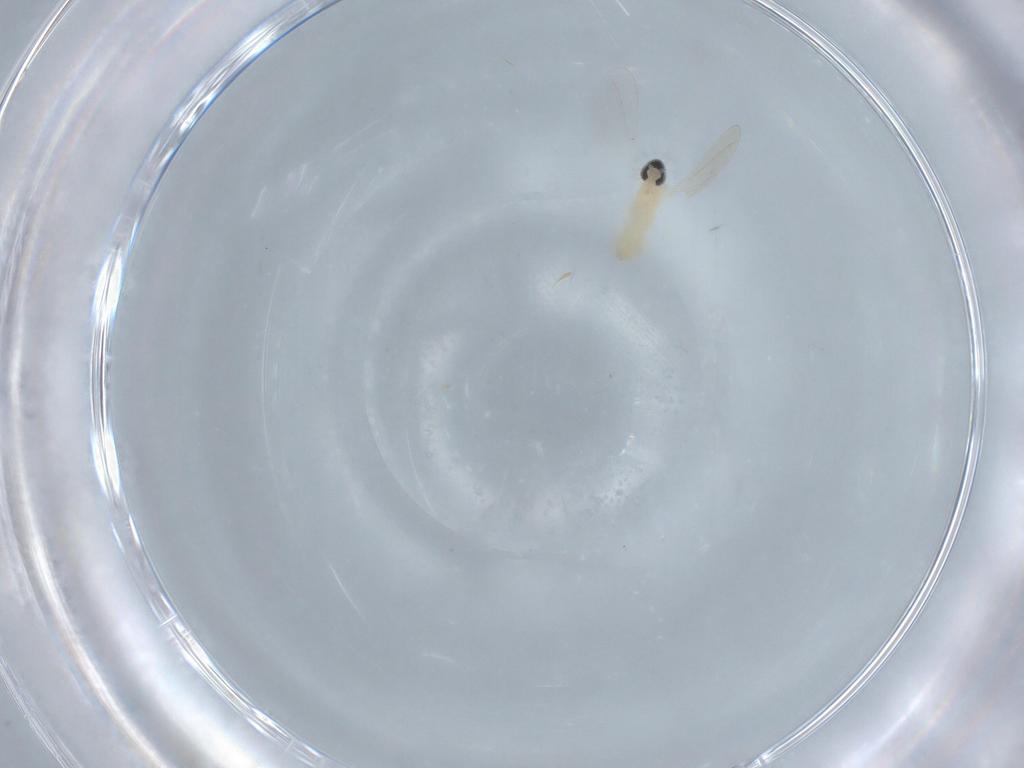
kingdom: Animalia
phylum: Arthropoda
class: Insecta
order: Diptera
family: Cecidomyiidae
